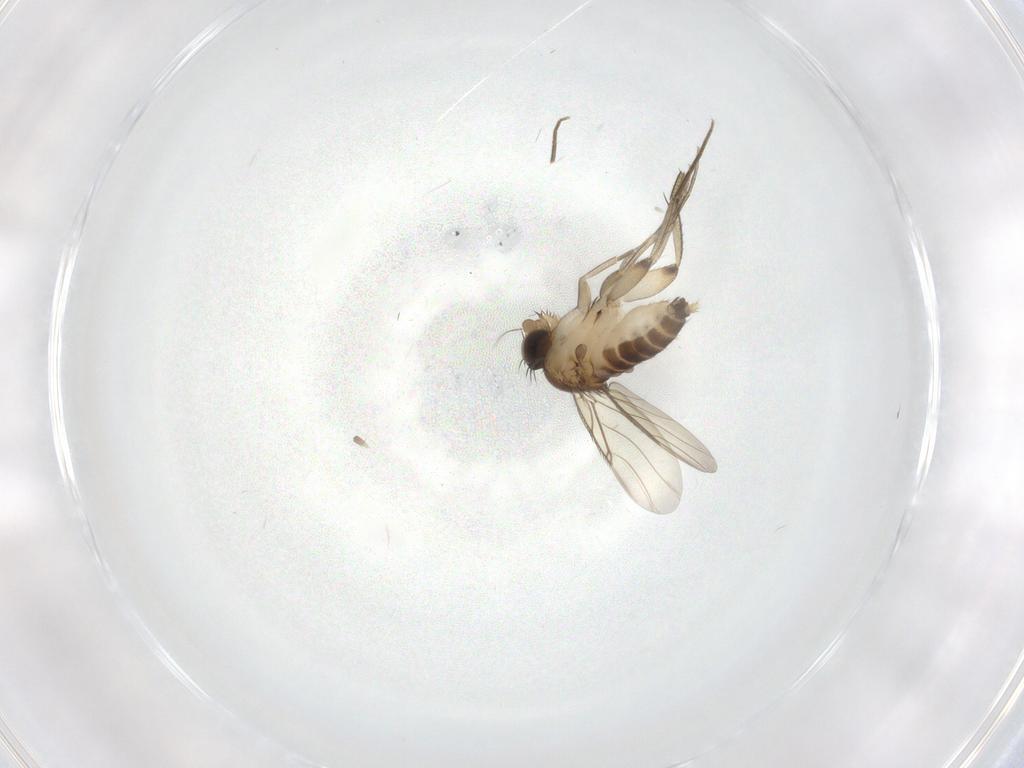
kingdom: Animalia
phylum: Arthropoda
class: Insecta
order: Diptera
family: Phoridae
